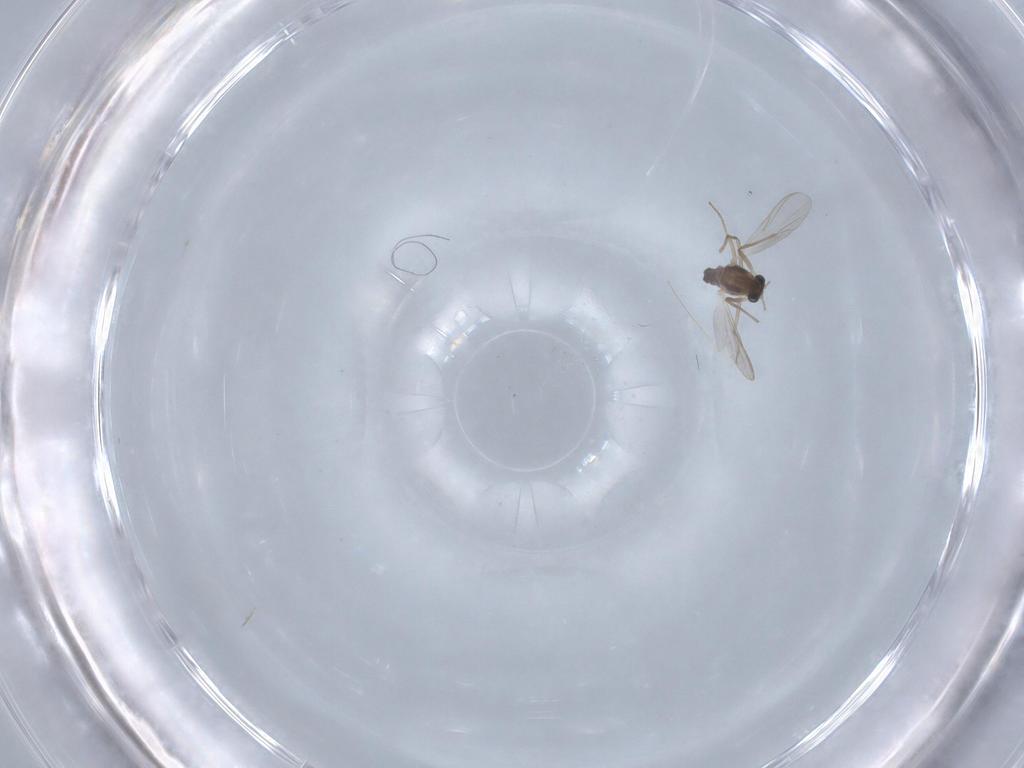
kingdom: Animalia
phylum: Arthropoda
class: Insecta
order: Diptera
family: Chironomidae
